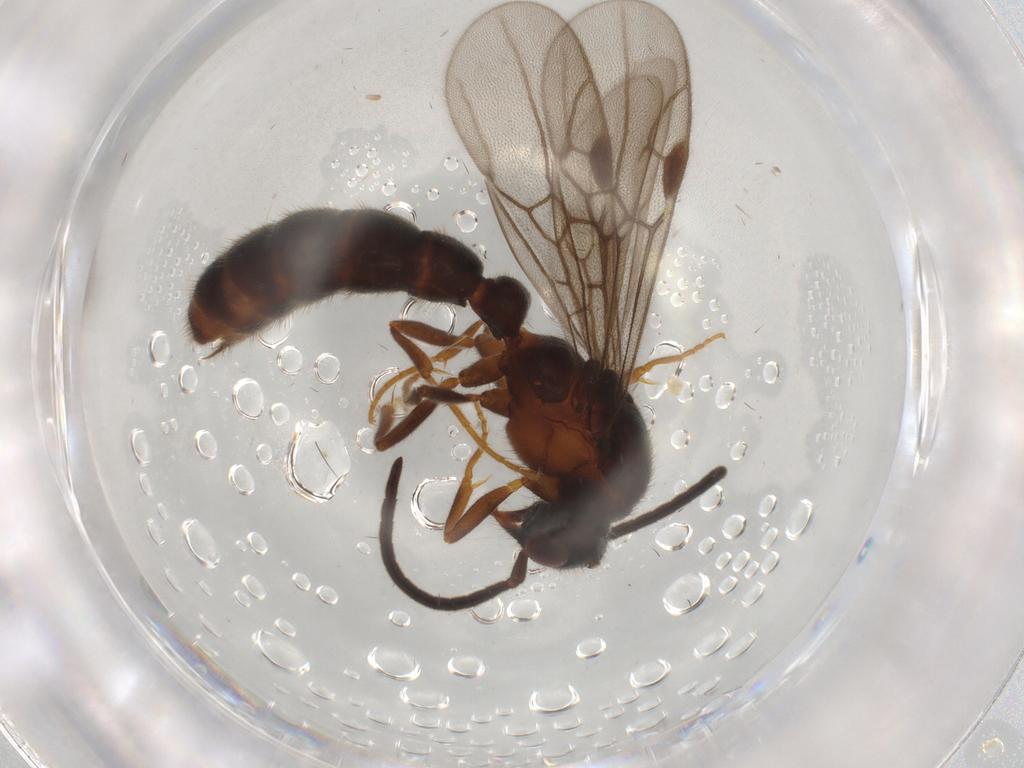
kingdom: Animalia
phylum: Arthropoda
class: Insecta
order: Hymenoptera
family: Formicidae
